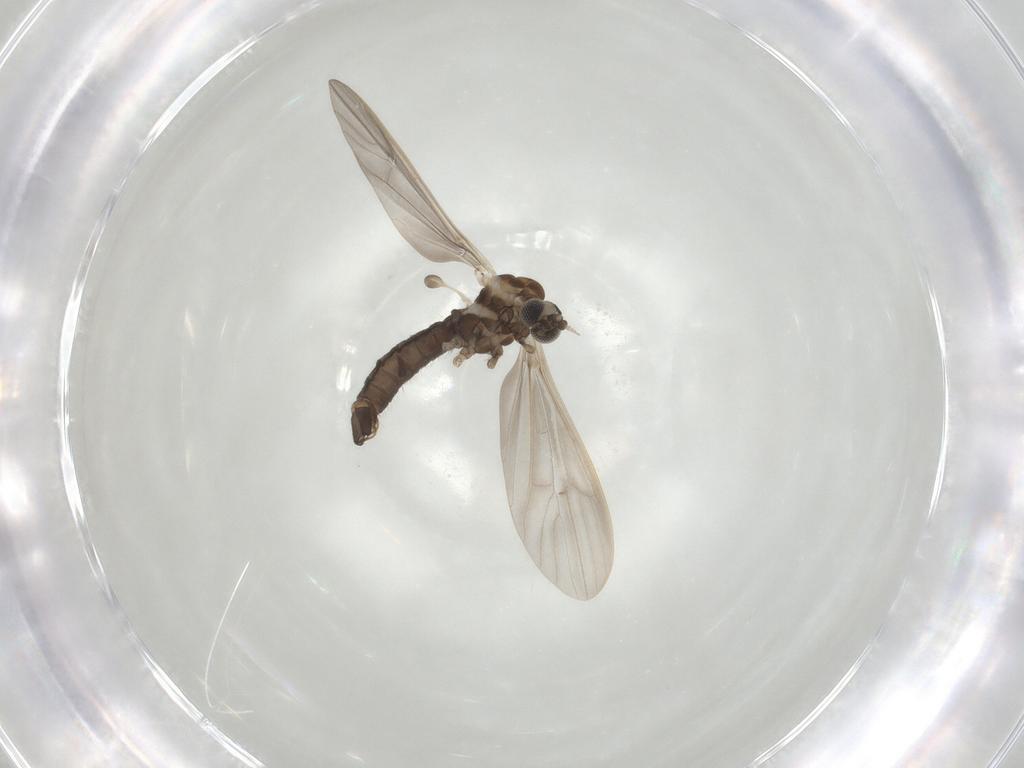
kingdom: Animalia
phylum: Arthropoda
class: Insecta
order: Diptera
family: Limoniidae
